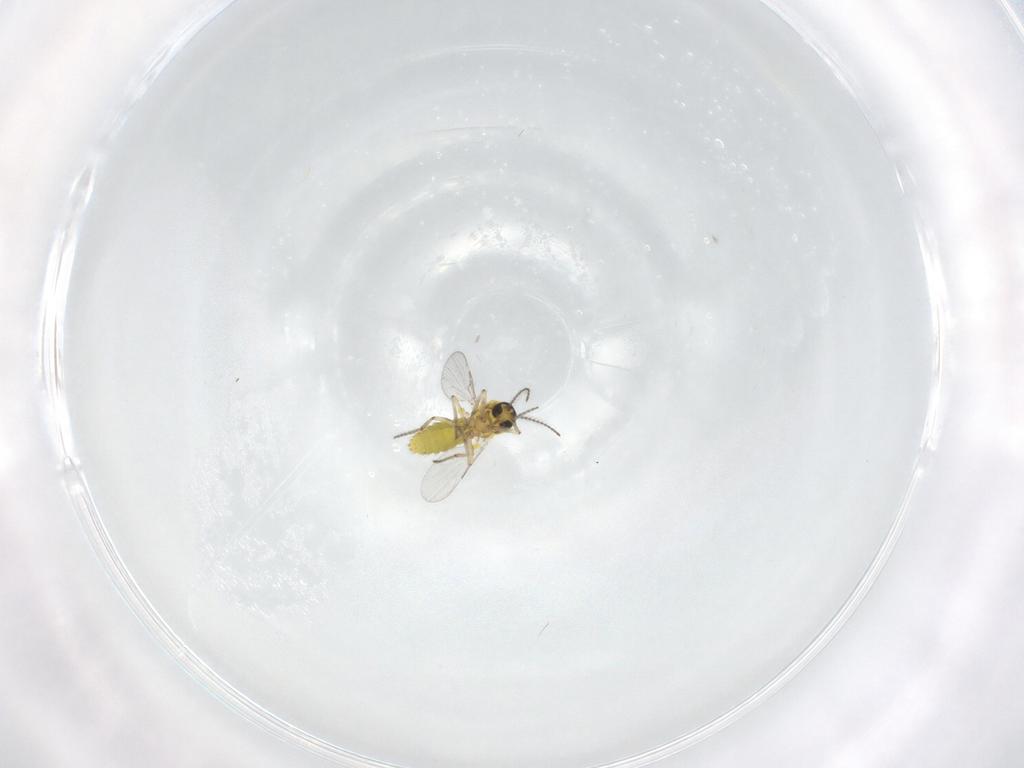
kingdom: Animalia
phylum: Arthropoda
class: Insecta
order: Diptera
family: Ceratopogonidae
